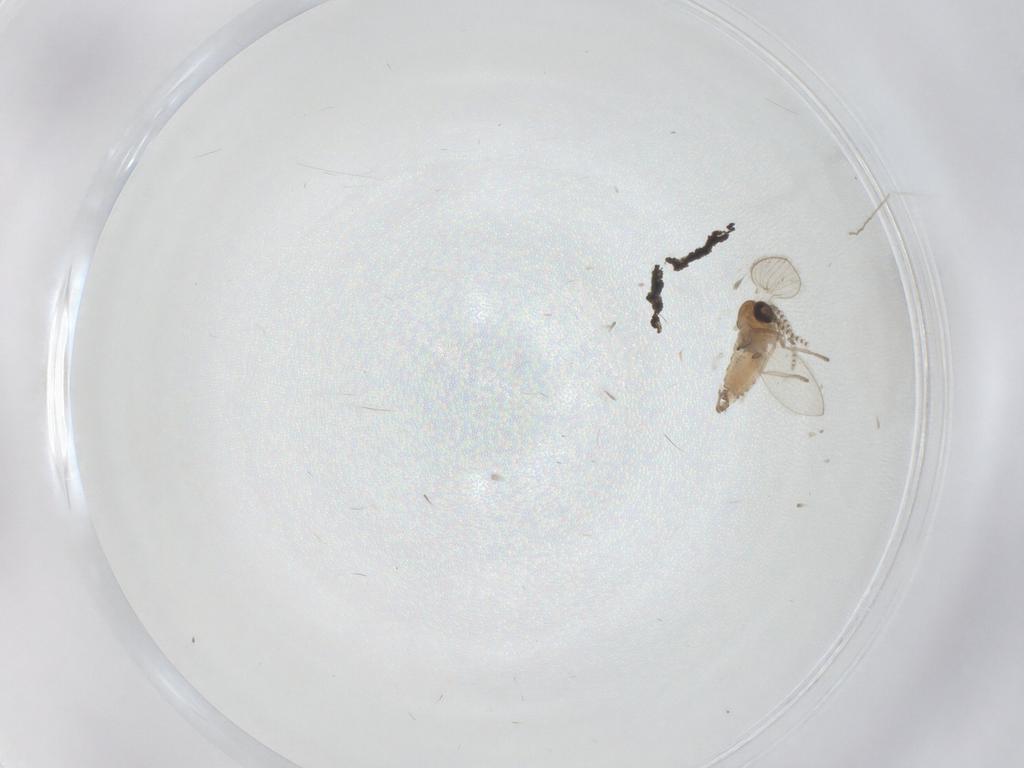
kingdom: Animalia
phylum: Arthropoda
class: Insecta
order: Diptera
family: Psychodidae
